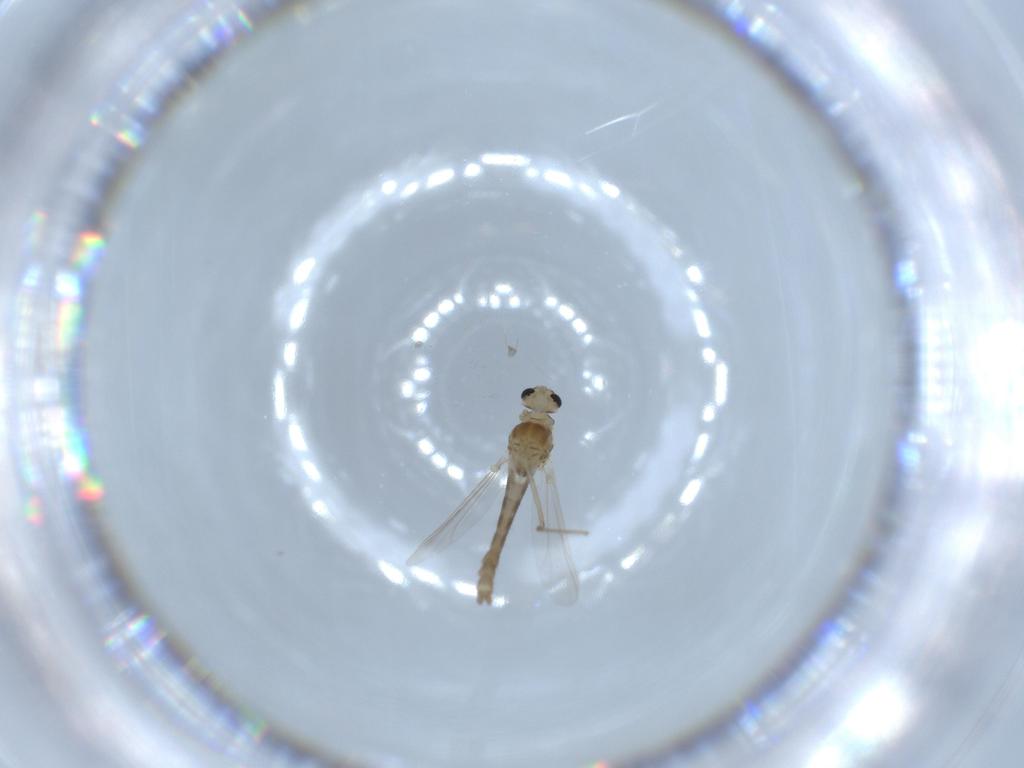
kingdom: Animalia
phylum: Arthropoda
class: Insecta
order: Diptera
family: Chironomidae
